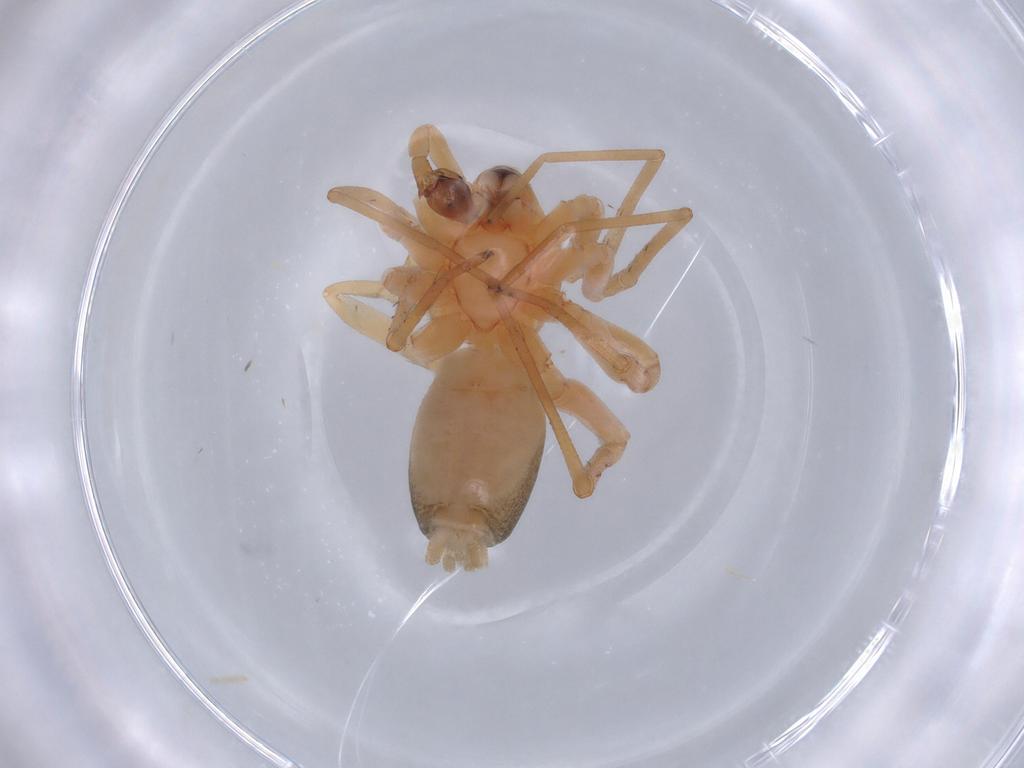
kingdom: Animalia
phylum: Arthropoda
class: Arachnida
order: Araneae
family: Corinnidae
